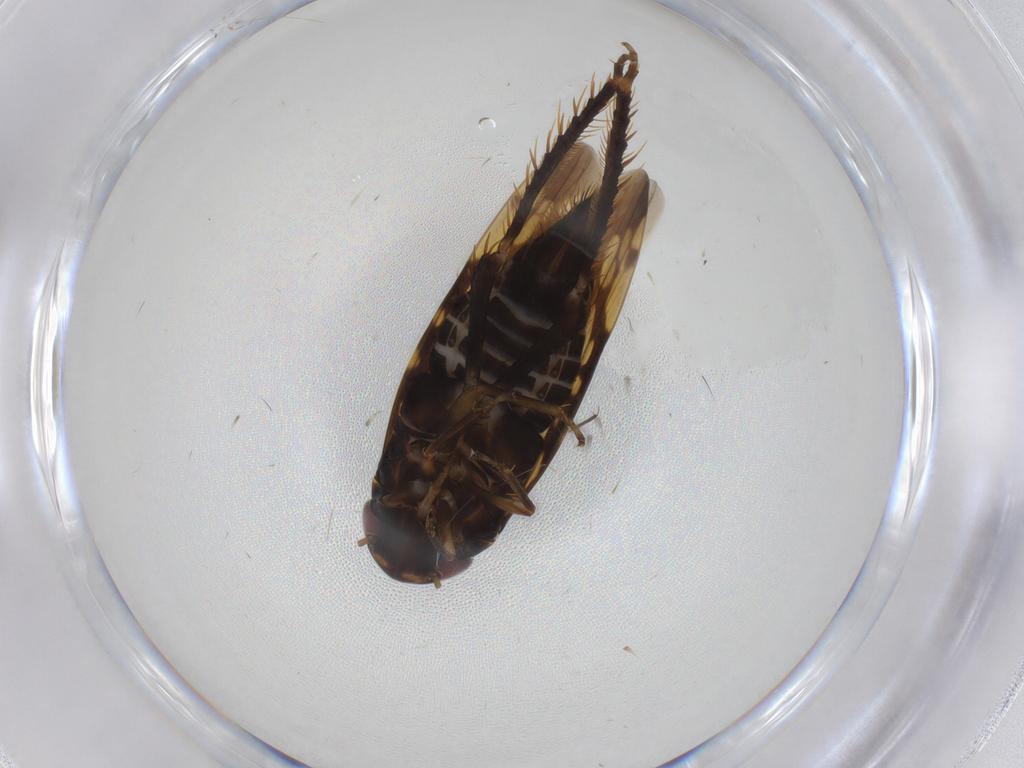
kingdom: Animalia
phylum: Arthropoda
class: Insecta
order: Hemiptera
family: Cicadellidae
